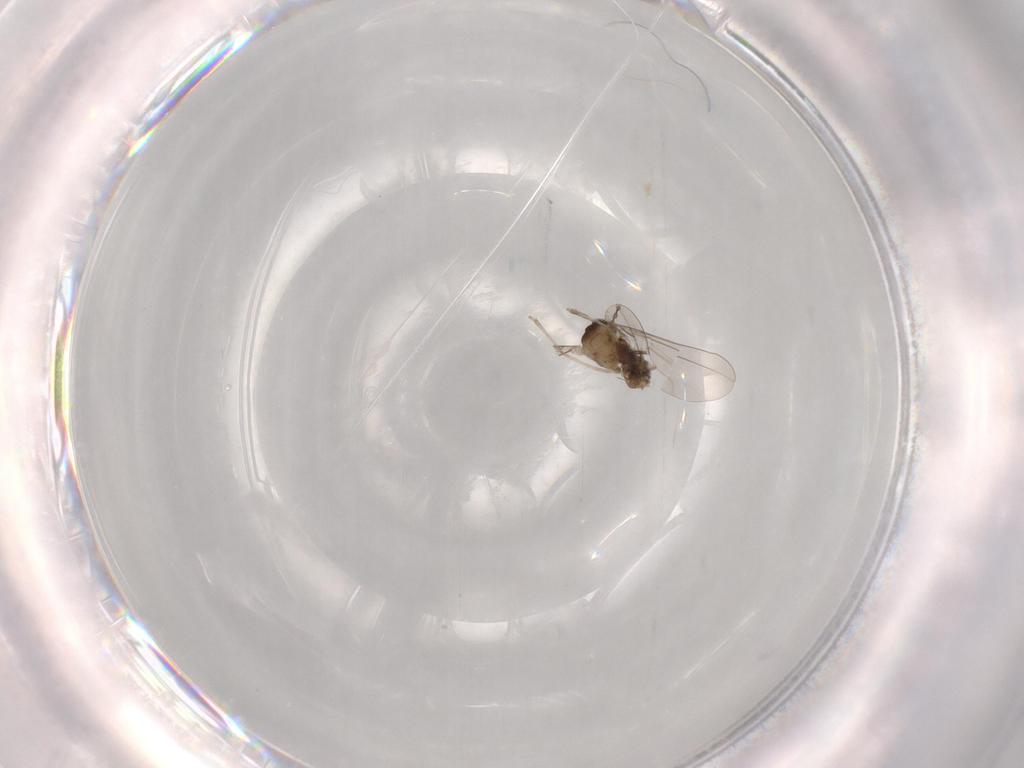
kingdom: Animalia
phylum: Arthropoda
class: Insecta
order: Diptera
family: Cecidomyiidae
